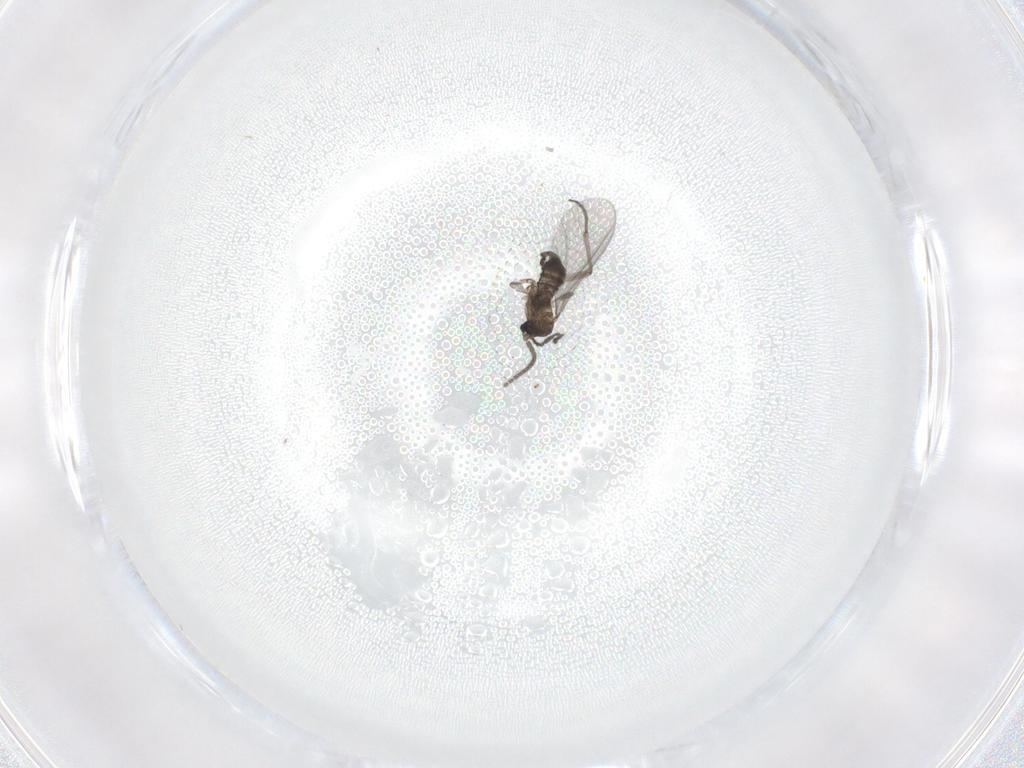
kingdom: Animalia
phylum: Arthropoda
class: Insecta
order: Diptera
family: Sciaridae
